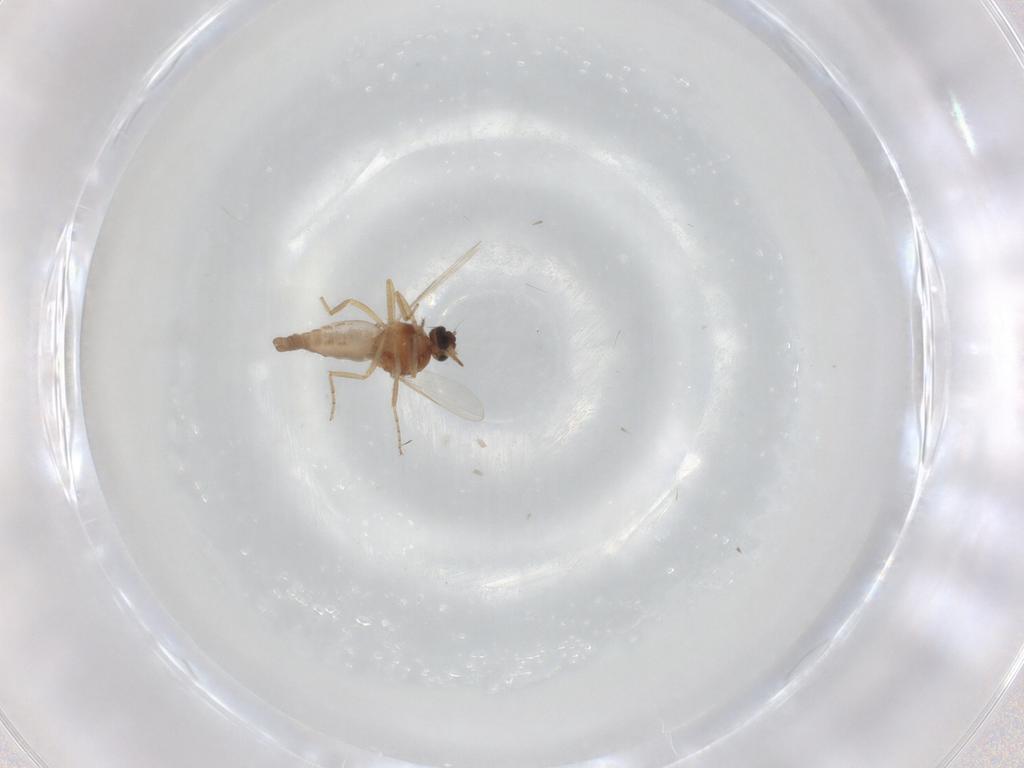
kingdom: Animalia
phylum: Arthropoda
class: Insecta
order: Diptera
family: Ceratopogonidae
